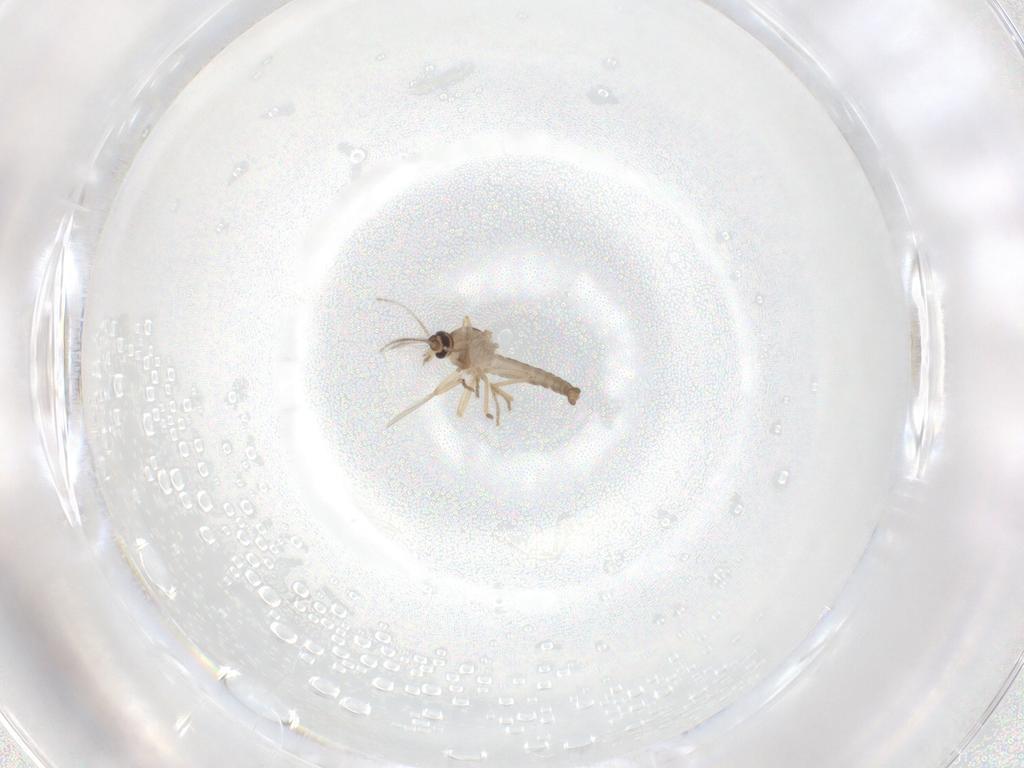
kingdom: Animalia
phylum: Arthropoda
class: Insecta
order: Diptera
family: Ceratopogonidae
